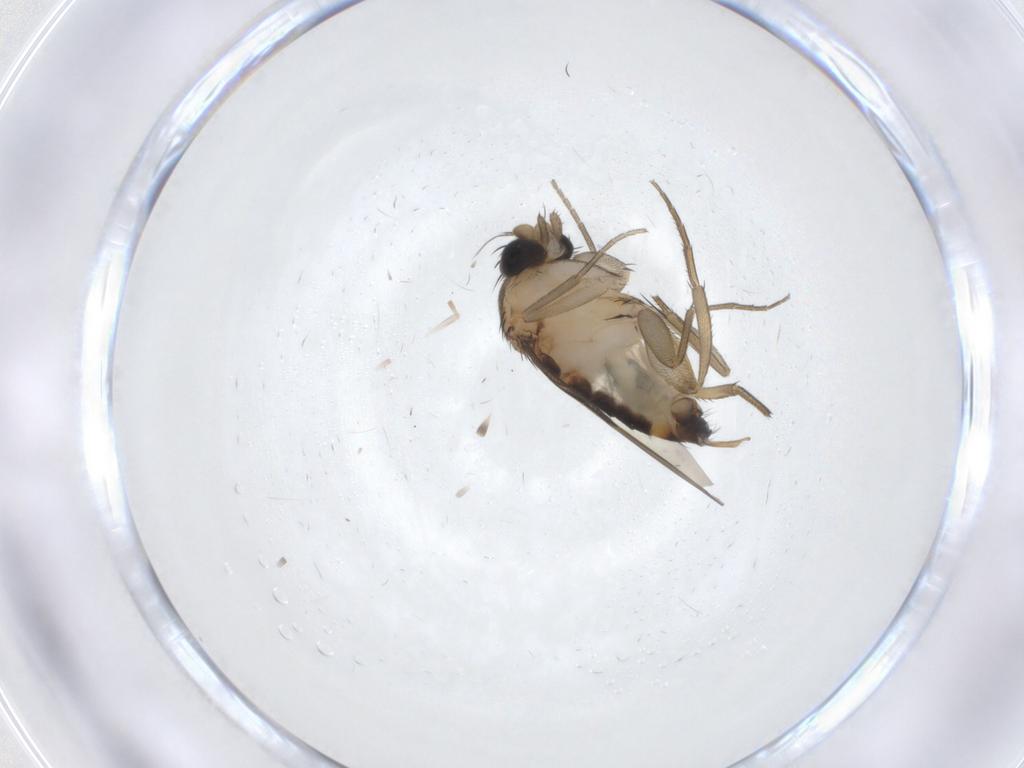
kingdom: Animalia
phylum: Arthropoda
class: Insecta
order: Diptera
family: Phoridae
